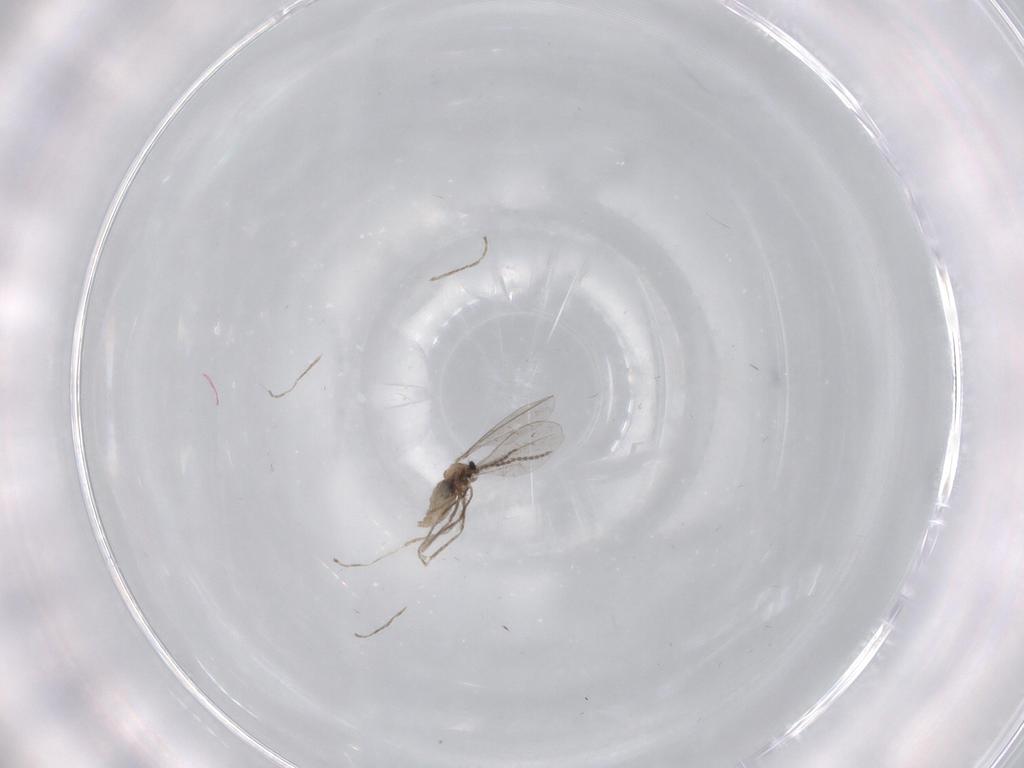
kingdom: Animalia
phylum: Arthropoda
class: Insecta
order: Diptera
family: Cecidomyiidae
